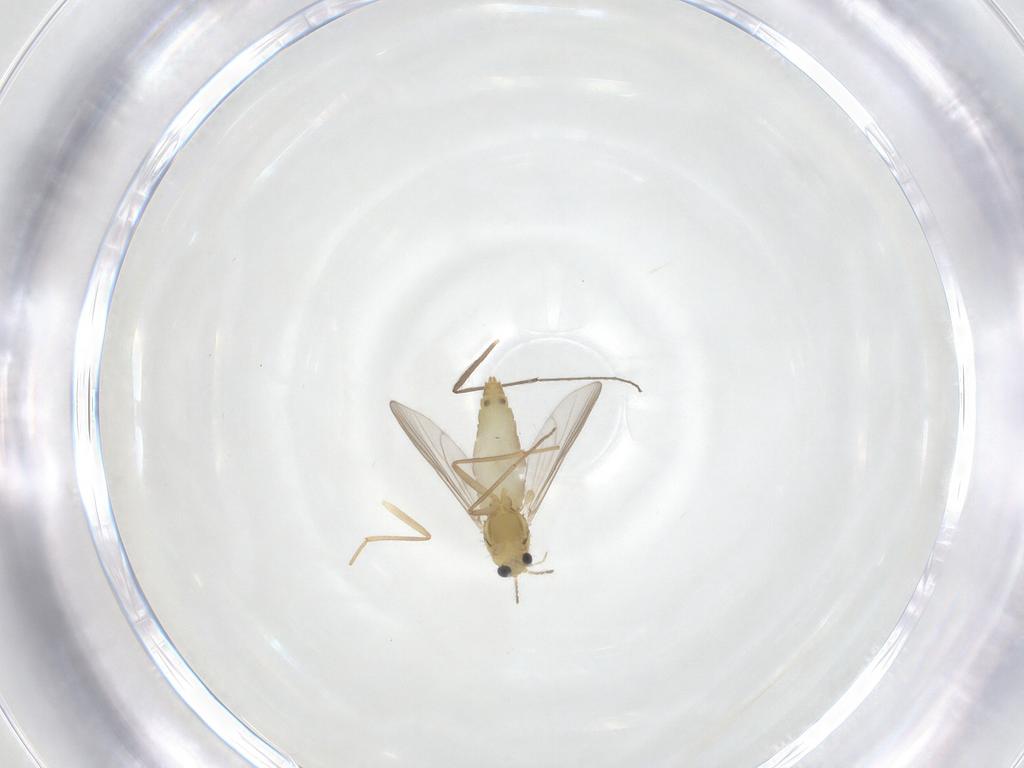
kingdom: Animalia
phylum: Arthropoda
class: Insecta
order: Diptera
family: Chironomidae
